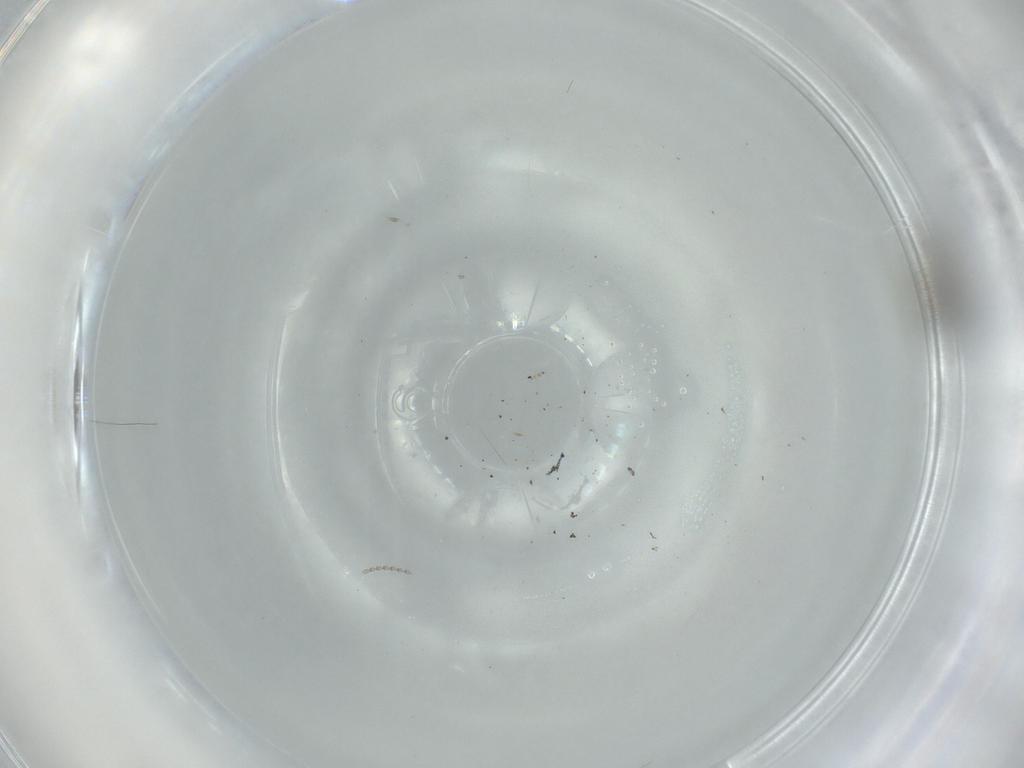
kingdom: Animalia
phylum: Arthropoda
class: Insecta
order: Diptera
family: Cecidomyiidae
